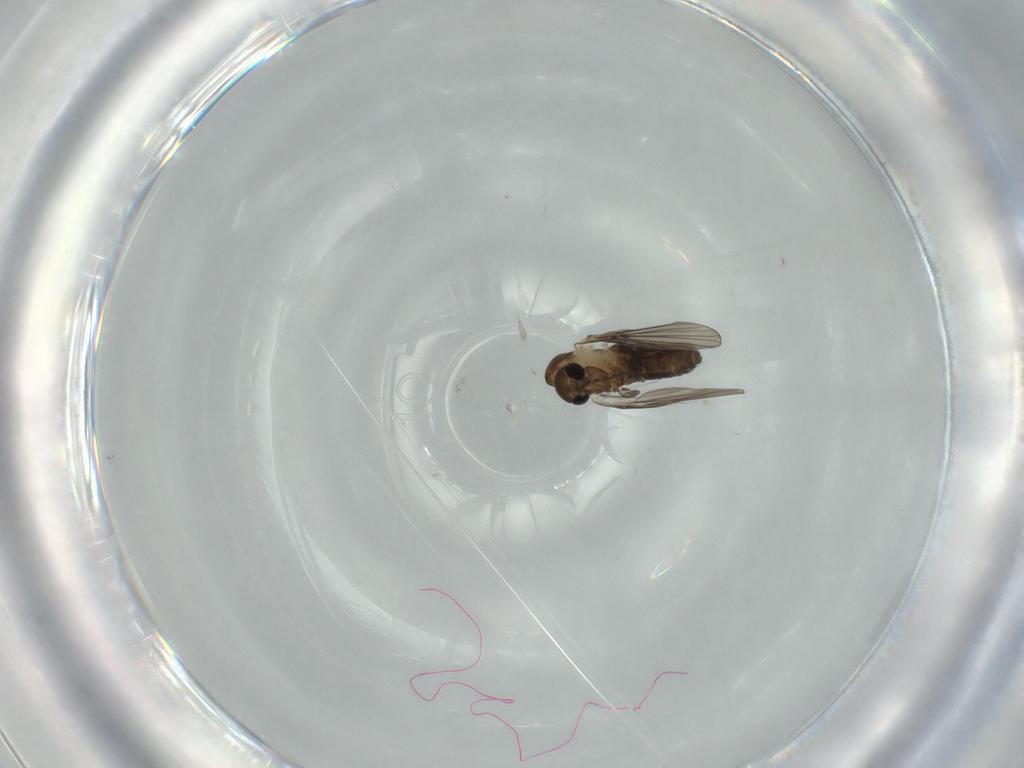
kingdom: Animalia
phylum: Arthropoda
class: Insecta
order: Diptera
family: Psychodidae
